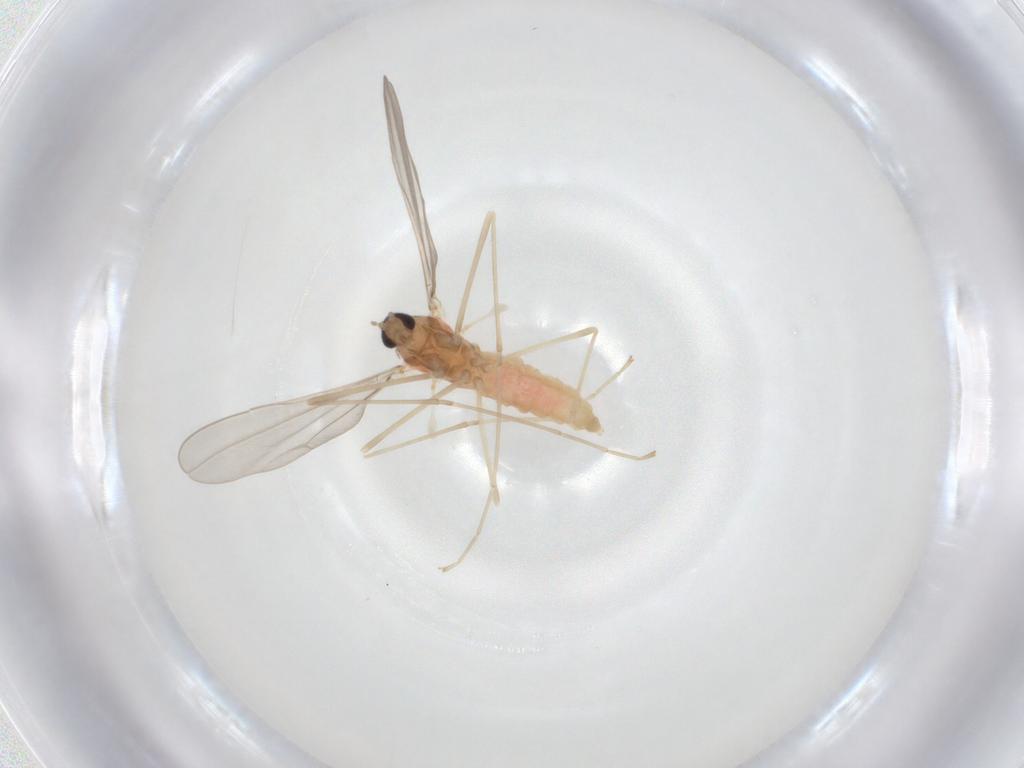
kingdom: Animalia
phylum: Arthropoda
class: Insecta
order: Diptera
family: Cecidomyiidae
